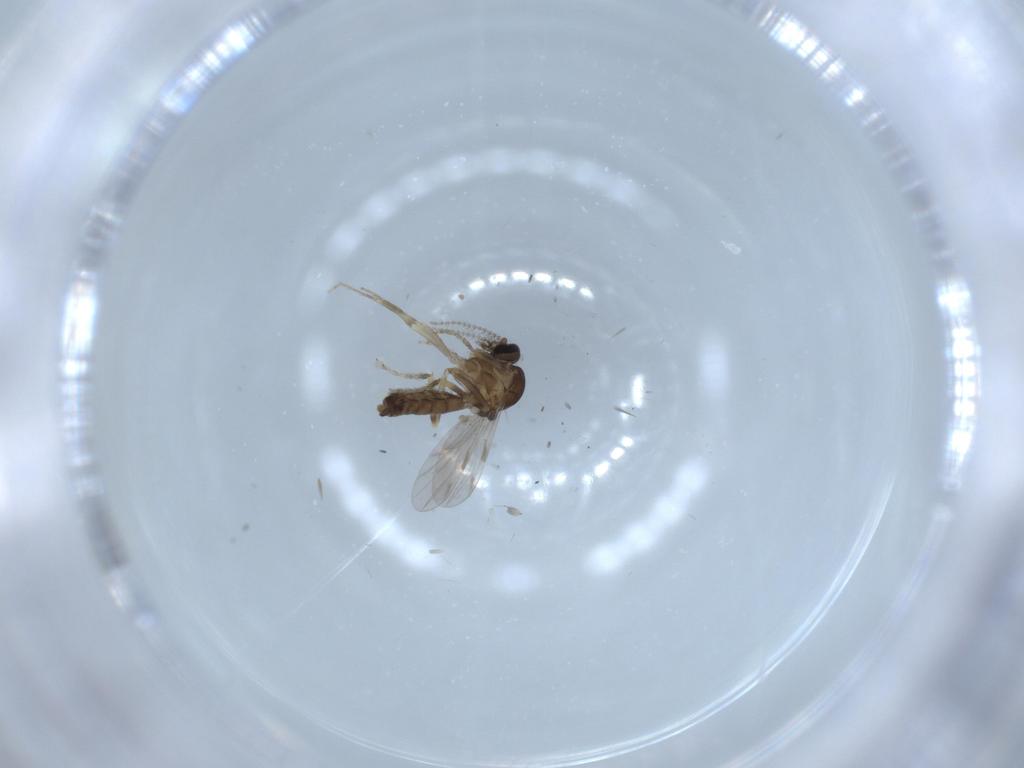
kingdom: Animalia
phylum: Arthropoda
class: Insecta
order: Diptera
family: Ceratopogonidae
